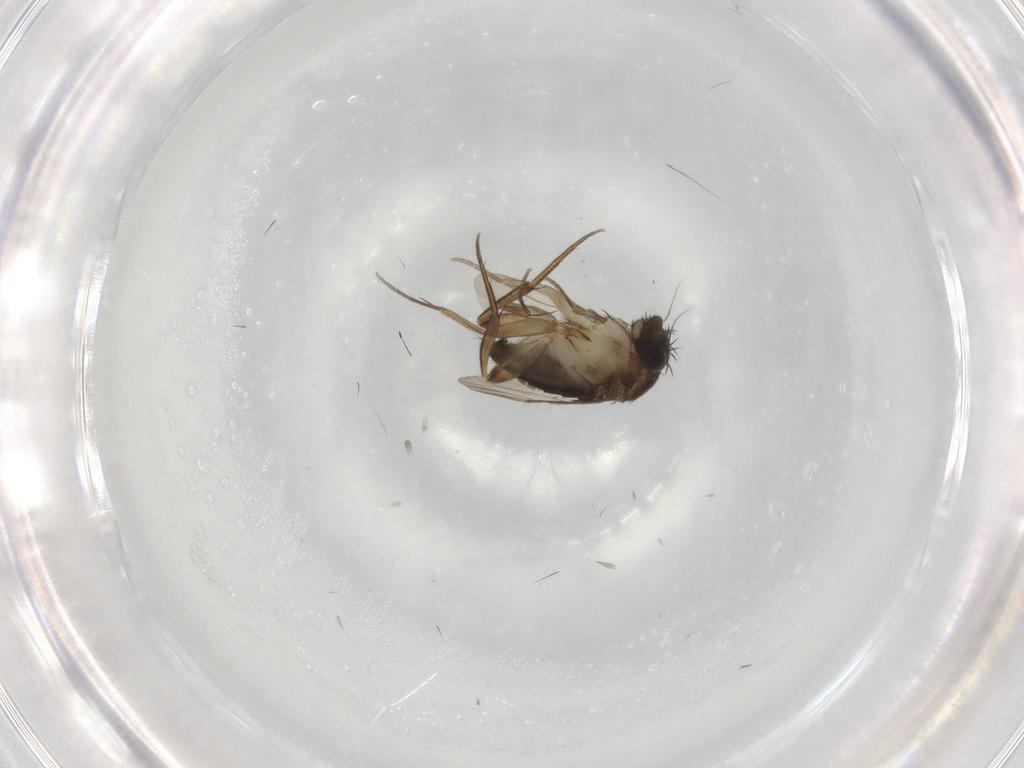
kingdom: Animalia
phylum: Arthropoda
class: Insecta
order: Diptera
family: Phoridae
